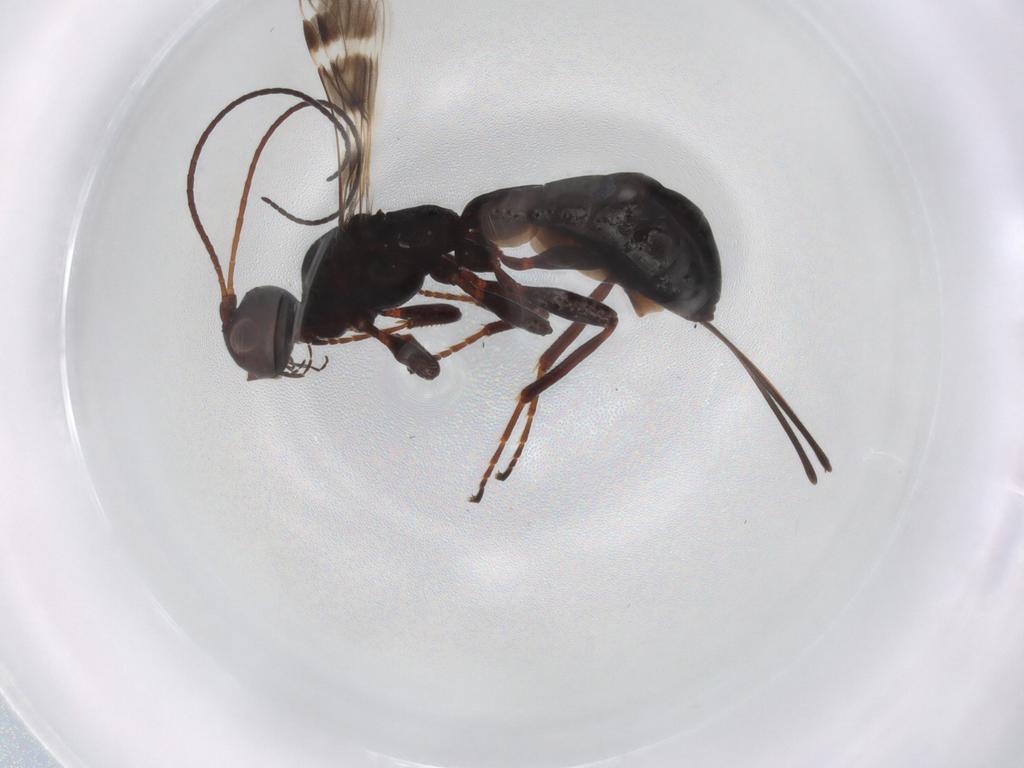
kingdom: Animalia
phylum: Arthropoda
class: Insecta
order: Hymenoptera
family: Braconidae
